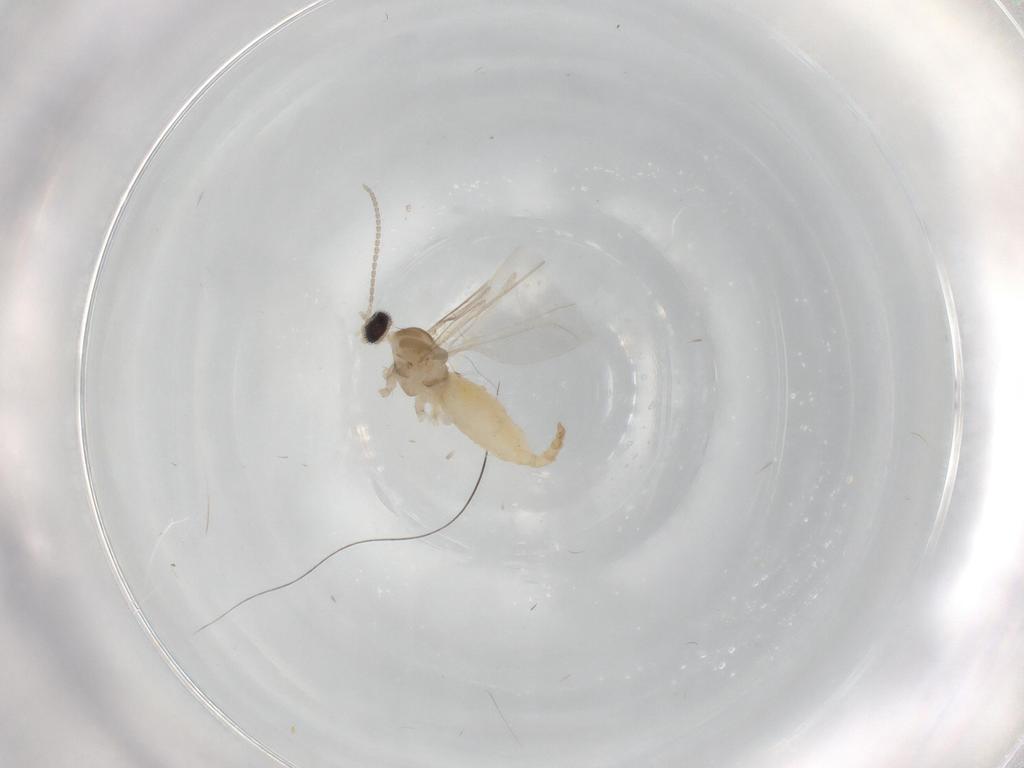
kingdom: Animalia
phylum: Arthropoda
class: Insecta
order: Diptera
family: Cecidomyiidae
